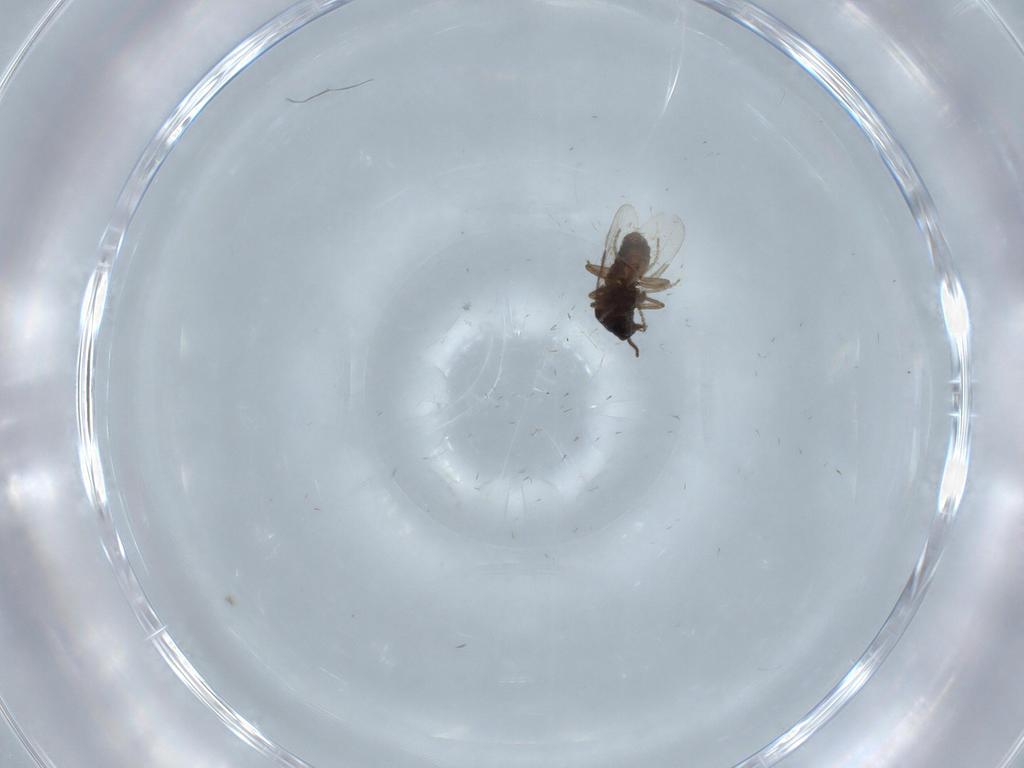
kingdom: Animalia
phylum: Arthropoda
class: Insecta
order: Diptera
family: Ceratopogonidae
